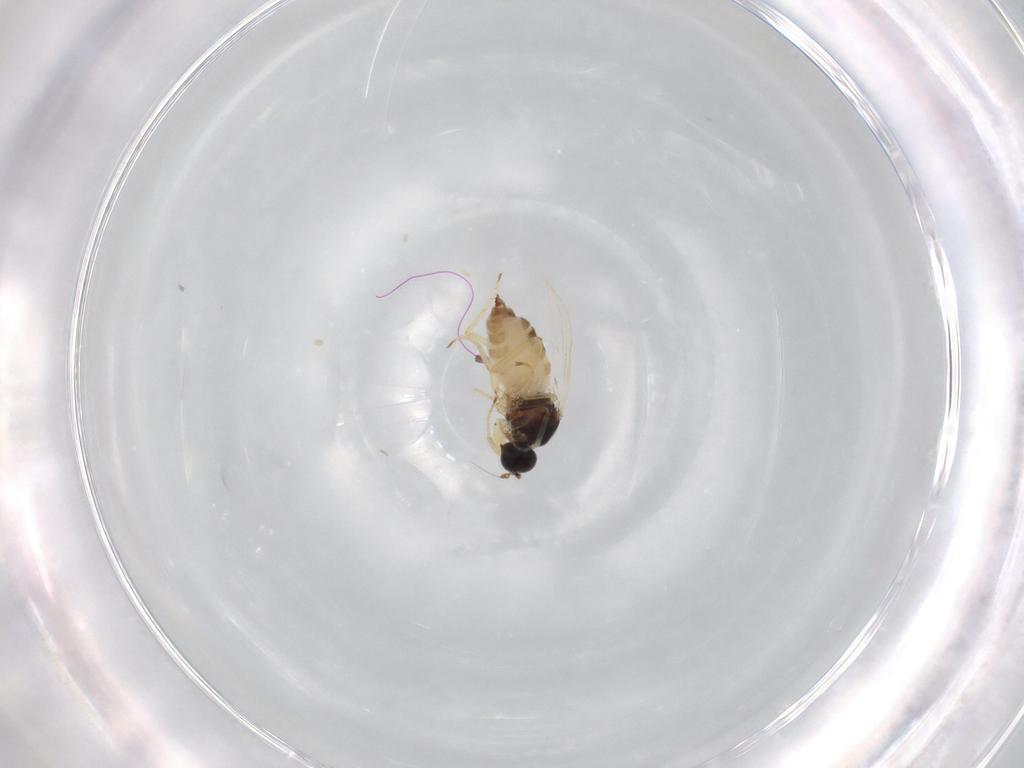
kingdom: Animalia
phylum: Arthropoda
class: Insecta
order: Diptera
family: Hybotidae
